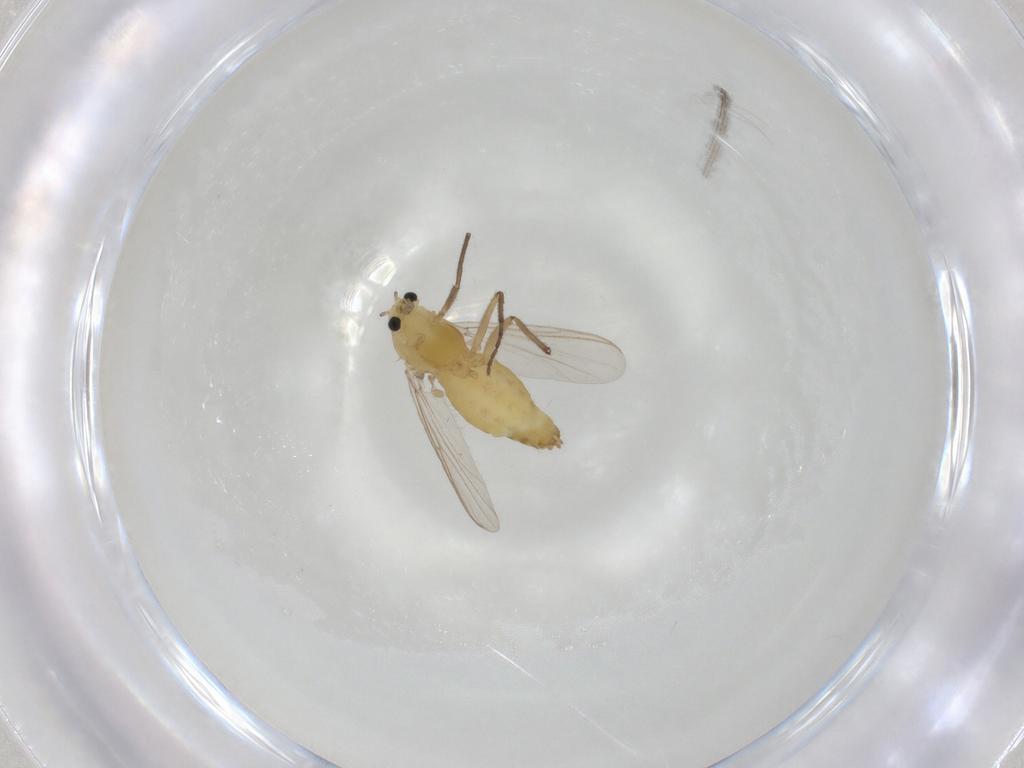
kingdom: Animalia
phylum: Arthropoda
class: Insecta
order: Diptera
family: Chironomidae
